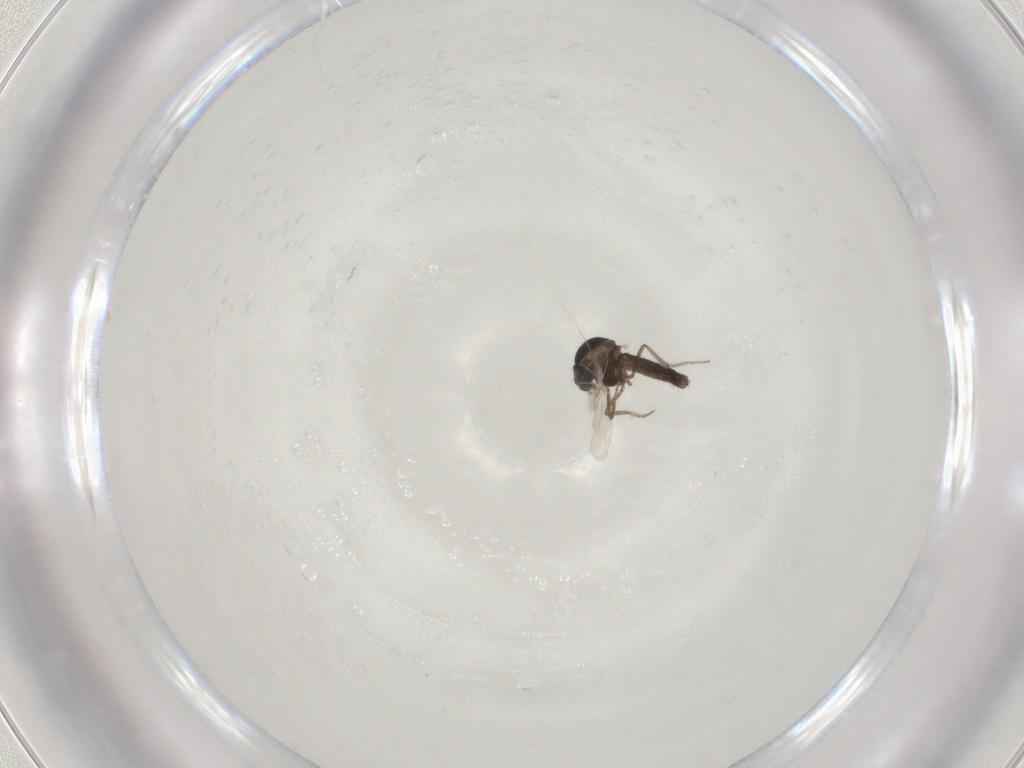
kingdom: Animalia
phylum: Arthropoda
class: Insecta
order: Diptera
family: Ceratopogonidae
